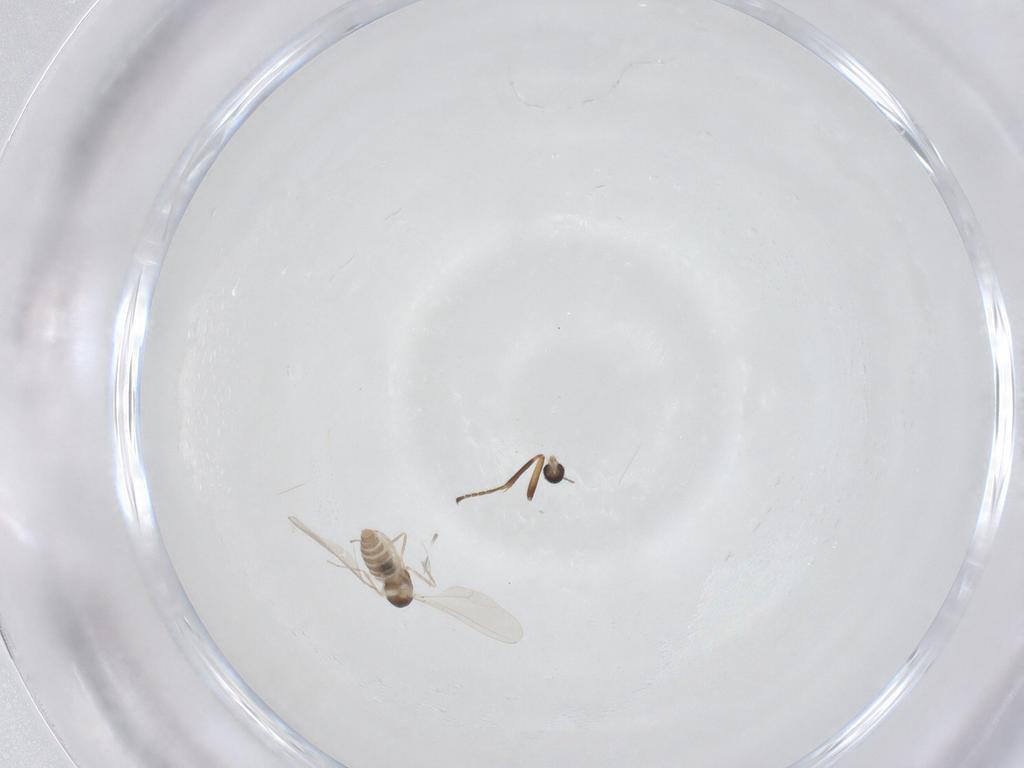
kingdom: Animalia
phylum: Arthropoda
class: Insecta
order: Diptera
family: Cecidomyiidae
